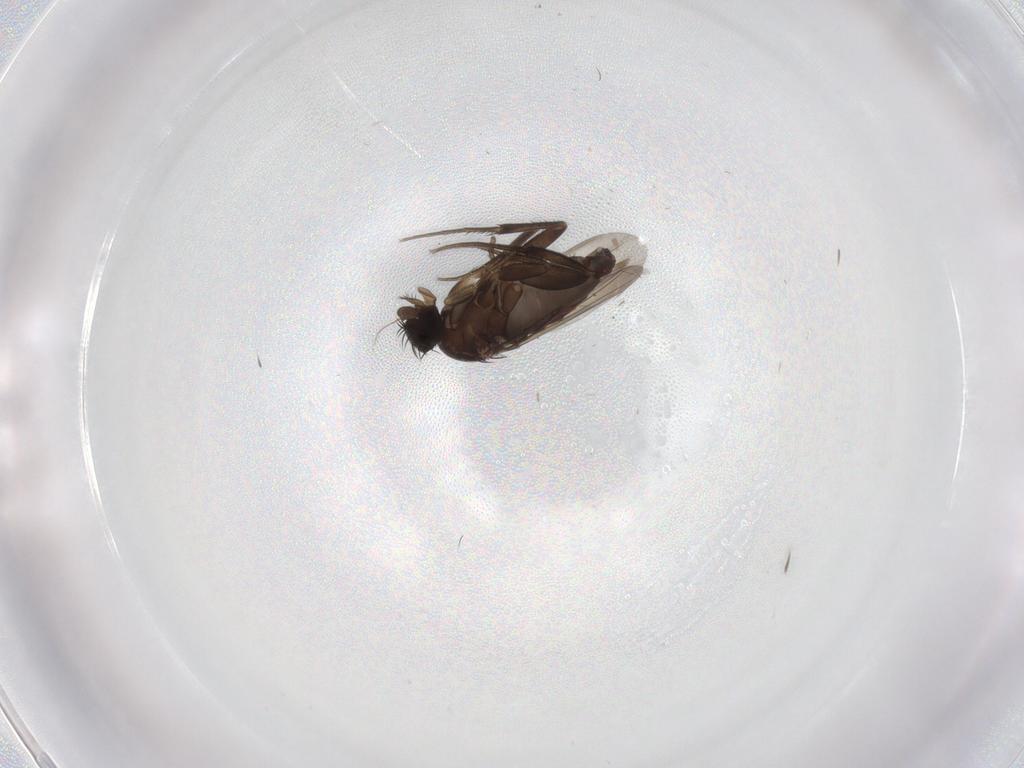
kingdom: Animalia
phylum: Arthropoda
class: Insecta
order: Diptera
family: Phoridae
